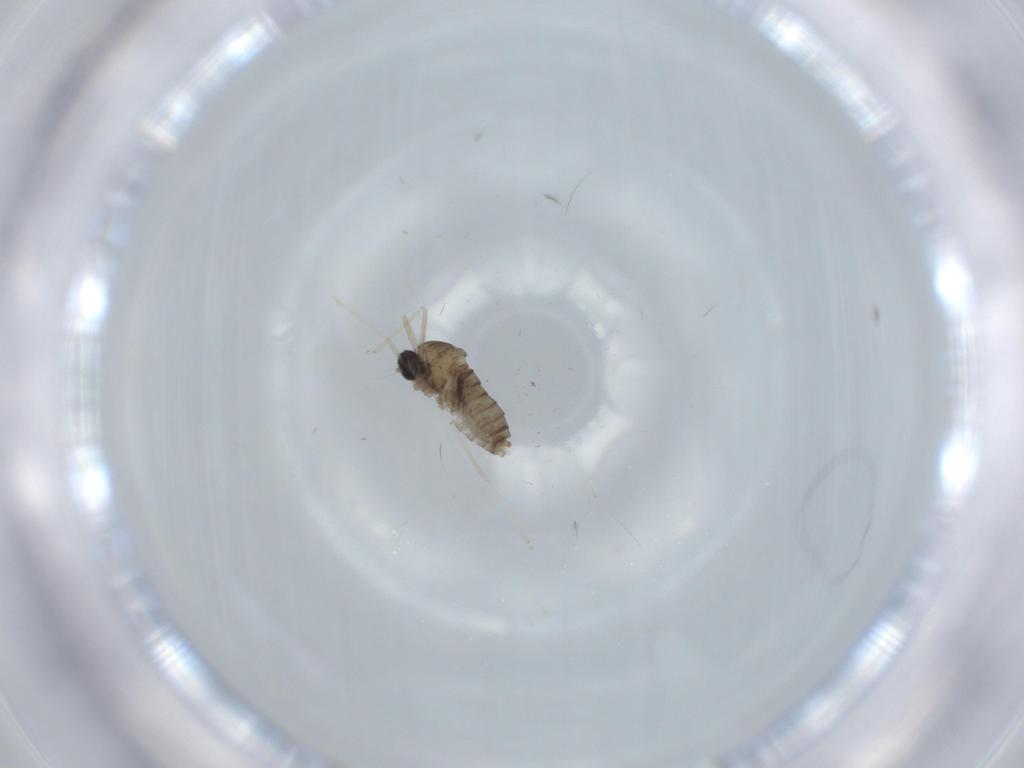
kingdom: Animalia
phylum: Arthropoda
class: Insecta
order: Diptera
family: Cecidomyiidae
